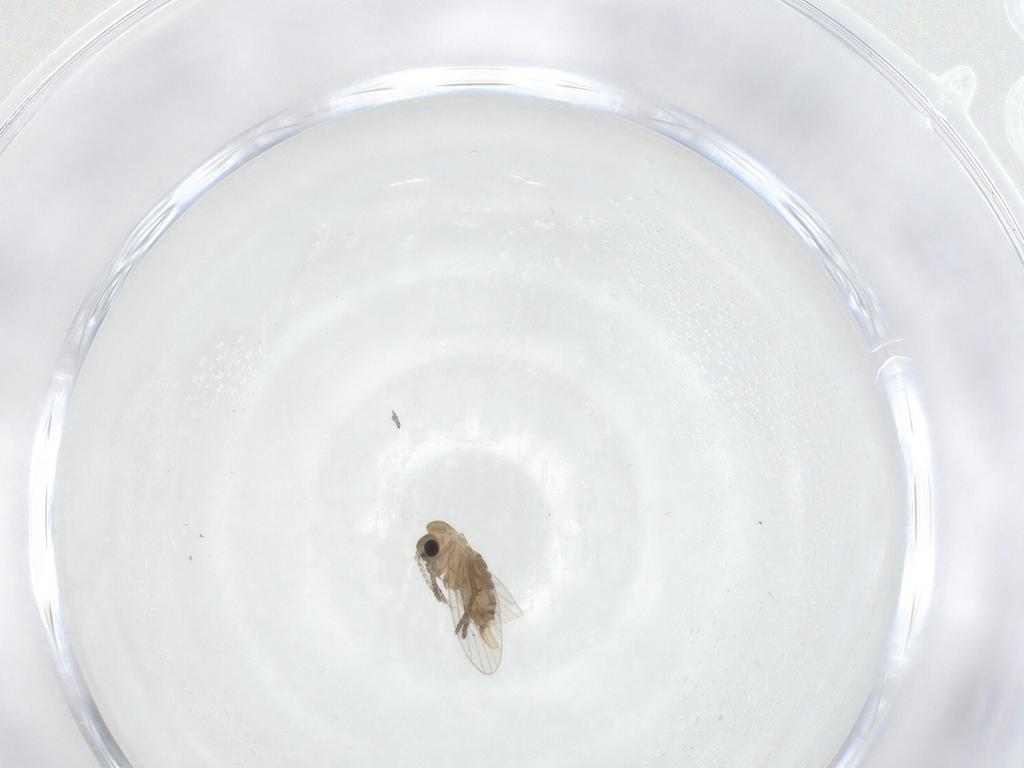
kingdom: Animalia
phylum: Arthropoda
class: Insecta
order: Diptera
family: Psychodidae
